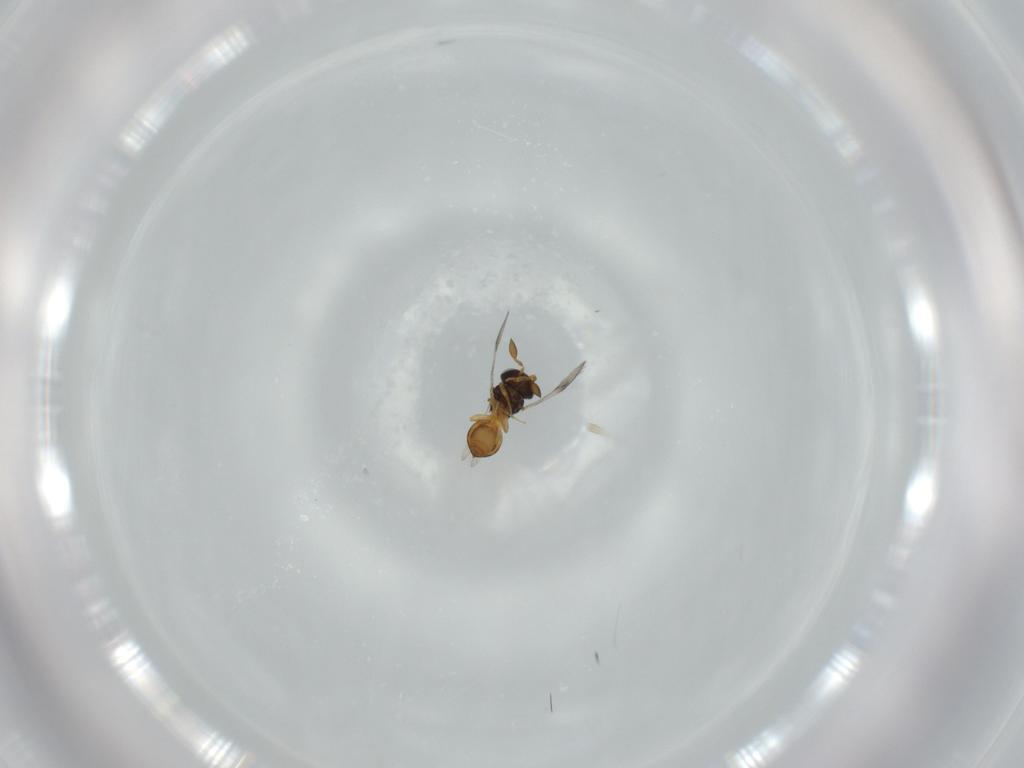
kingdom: Animalia
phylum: Arthropoda
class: Insecta
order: Hymenoptera
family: Scelionidae
